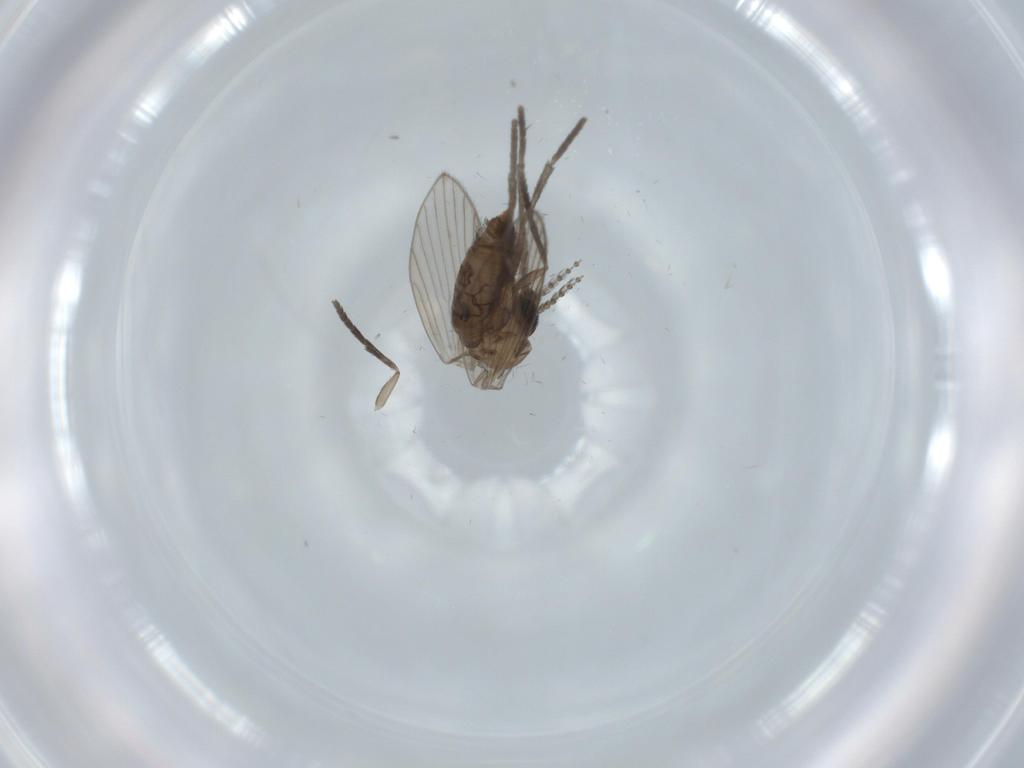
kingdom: Animalia
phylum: Arthropoda
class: Insecta
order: Diptera
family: Psychodidae
